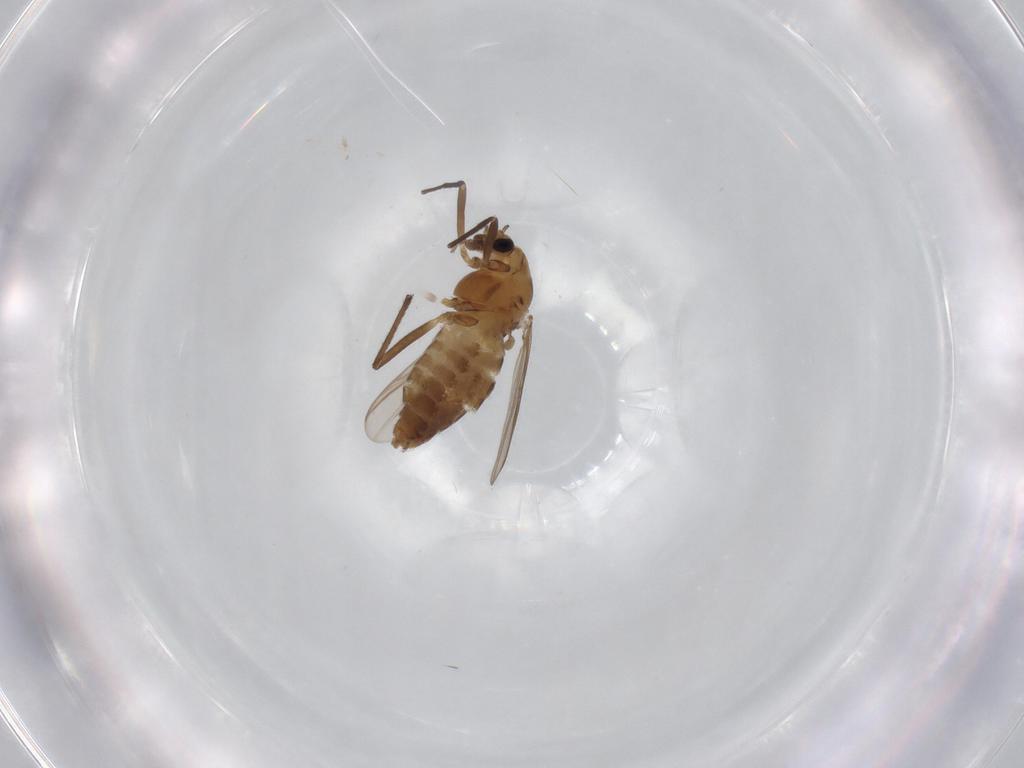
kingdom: Animalia
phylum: Arthropoda
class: Insecta
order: Diptera
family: Chironomidae
